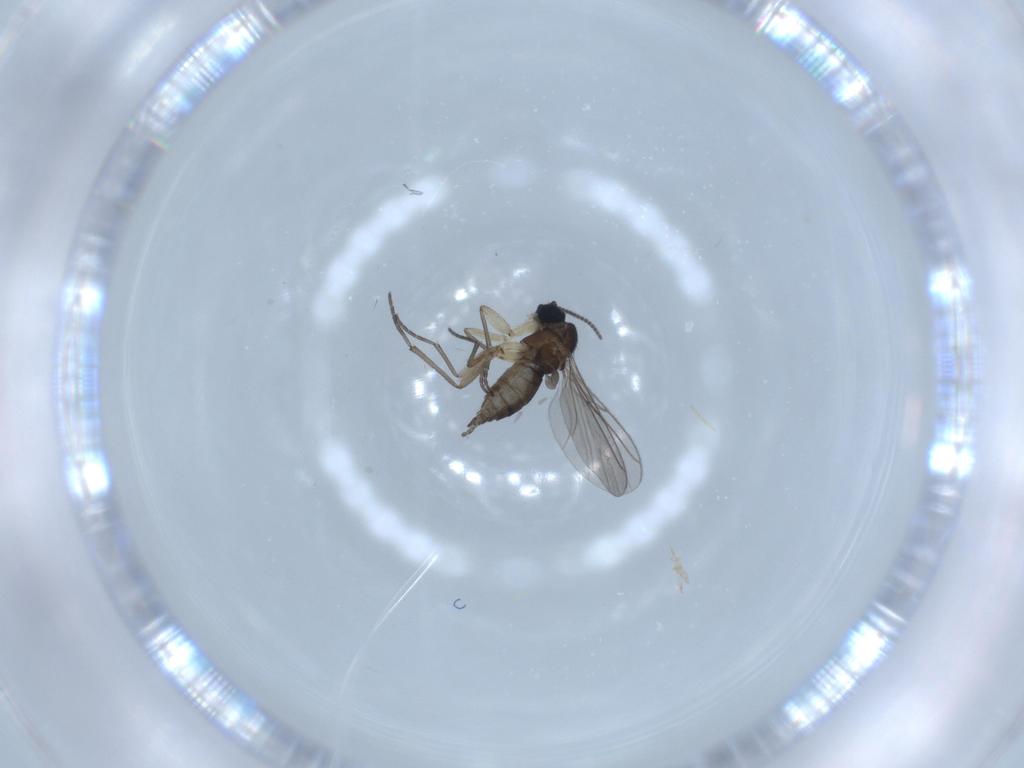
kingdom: Animalia
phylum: Arthropoda
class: Insecta
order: Diptera
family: Sciaridae
